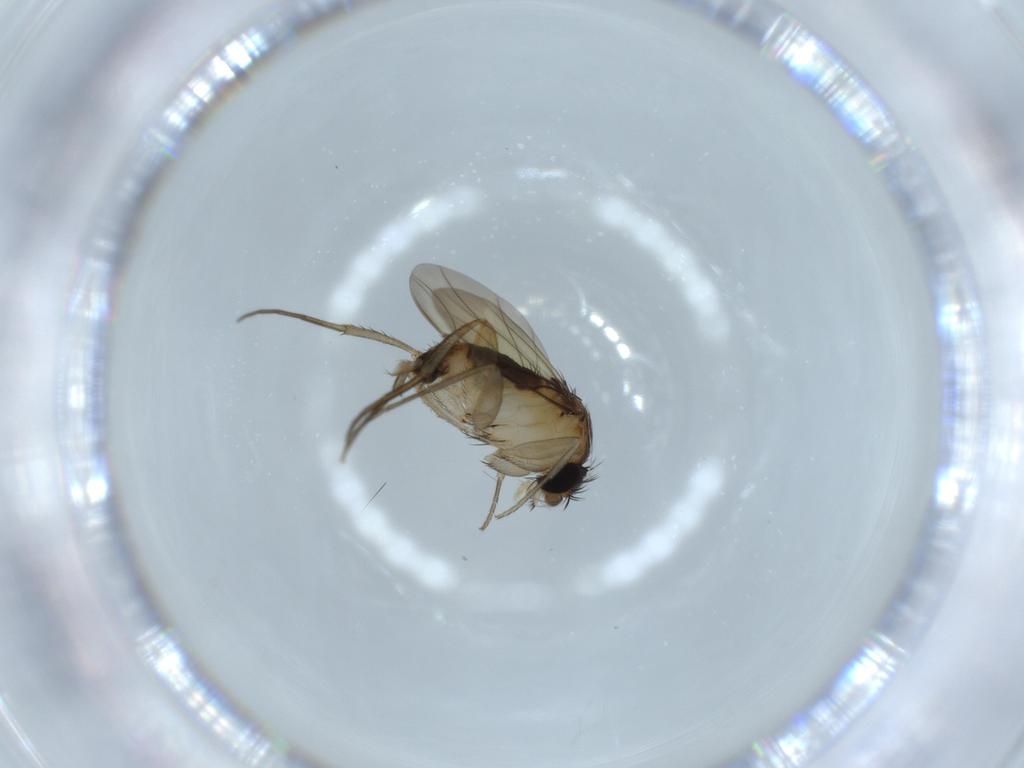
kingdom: Animalia
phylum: Arthropoda
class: Insecta
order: Diptera
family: Phoridae
